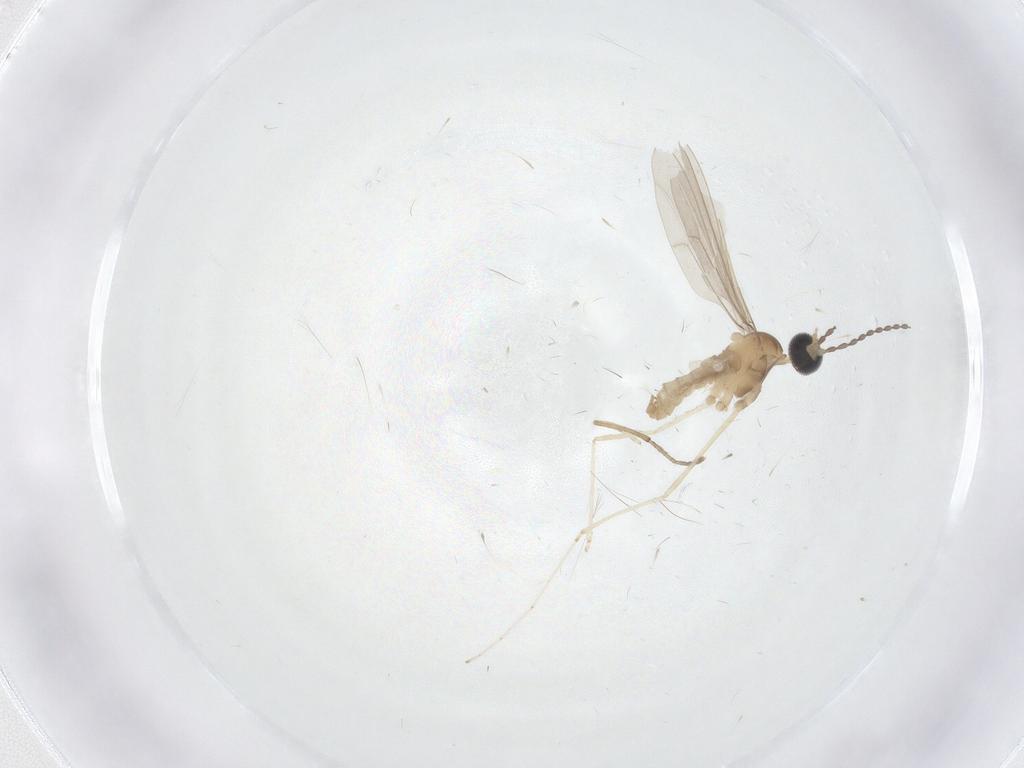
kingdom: Animalia
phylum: Arthropoda
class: Insecta
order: Diptera
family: Cecidomyiidae
